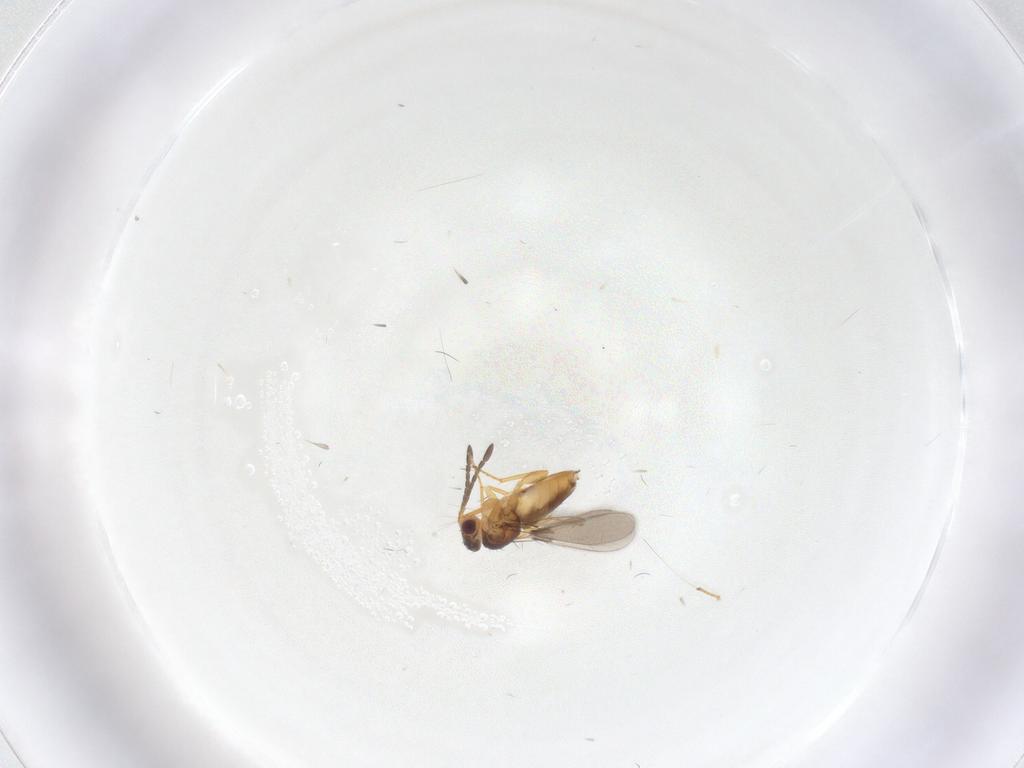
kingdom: Animalia
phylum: Arthropoda
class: Insecta
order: Hymenoptera
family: Mymaridae
